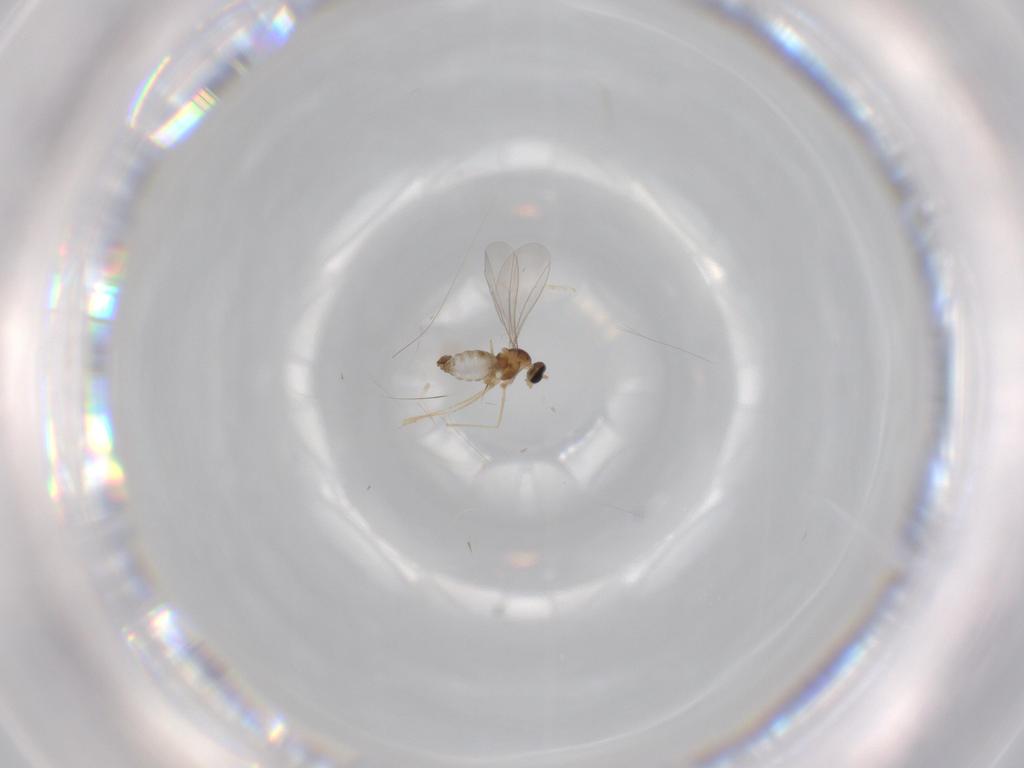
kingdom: Animalia
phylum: Arthropoda
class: Insecta
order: Diptera
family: Cecidomyiidae
